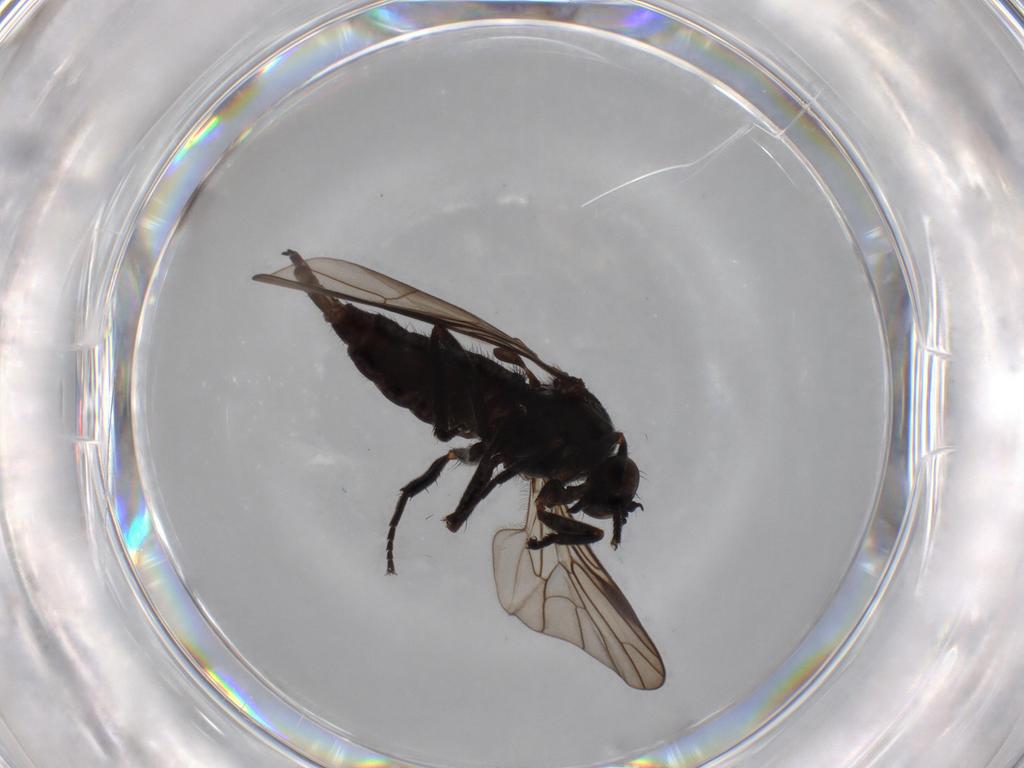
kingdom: Animalia
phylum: Arthropoda
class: Insecta
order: Diptera
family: Empididae
